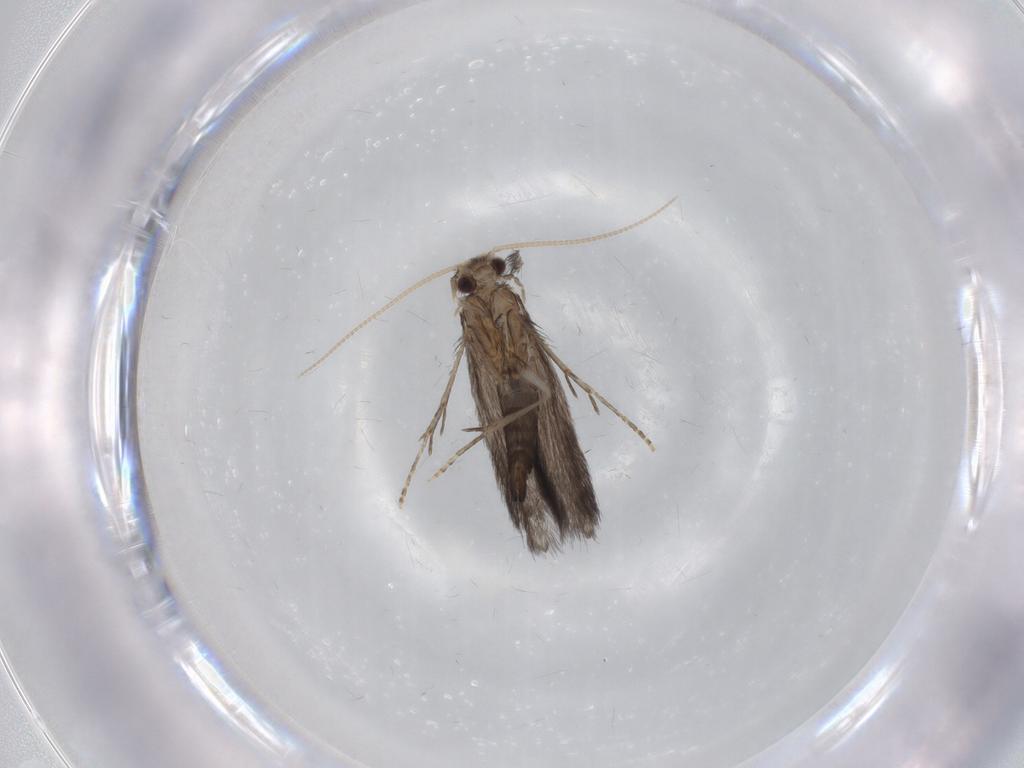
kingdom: Animalia
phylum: Arthropoda
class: Insecta
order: Trichoptera
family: Hydroptilidae
